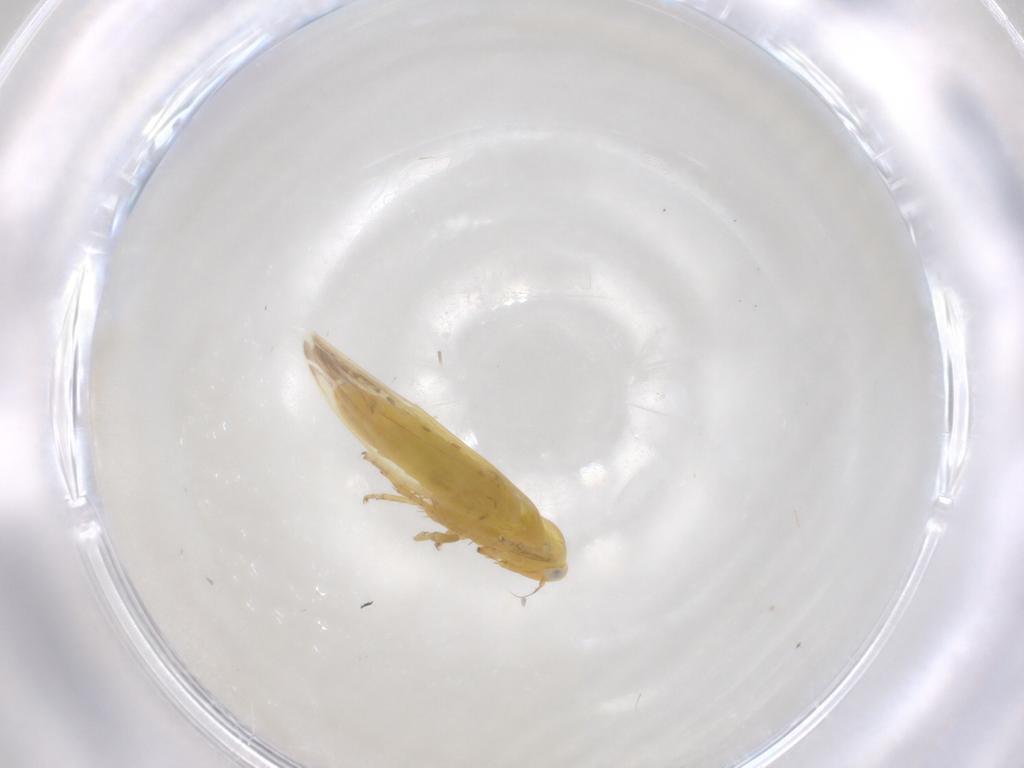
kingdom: Animalia
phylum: Arthropoda
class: Insecta
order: Hemiptera
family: Cicadellidae
